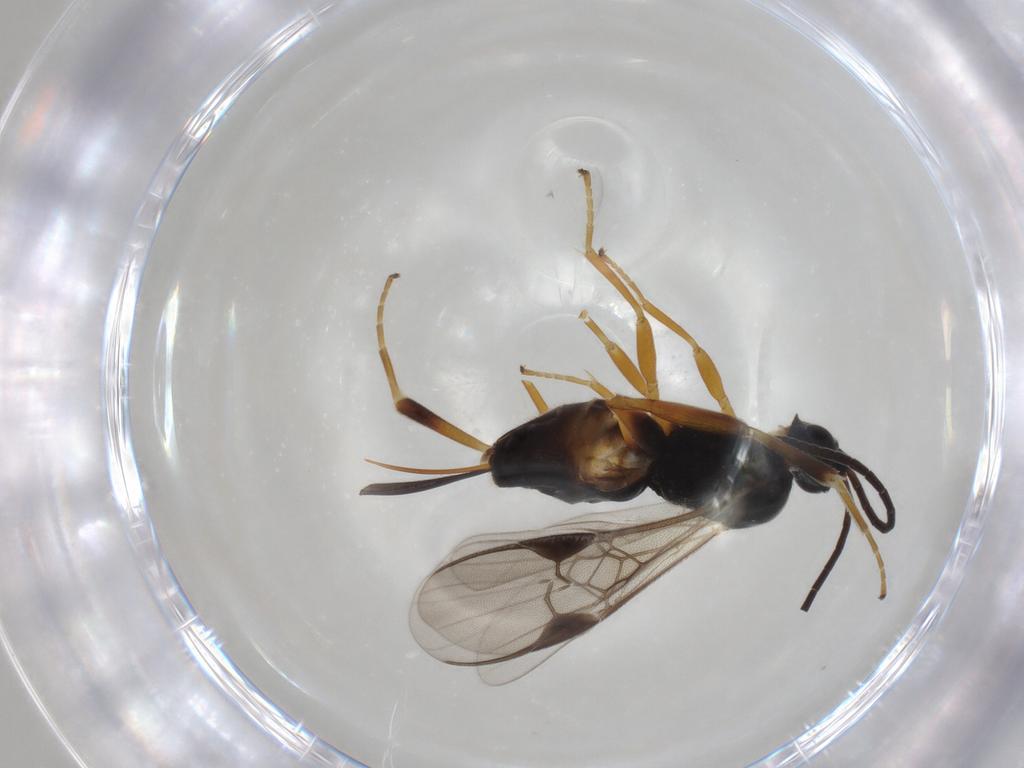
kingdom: Animalia
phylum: Arthropoda
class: Insecta
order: Hymenoptera
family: Braconidae
